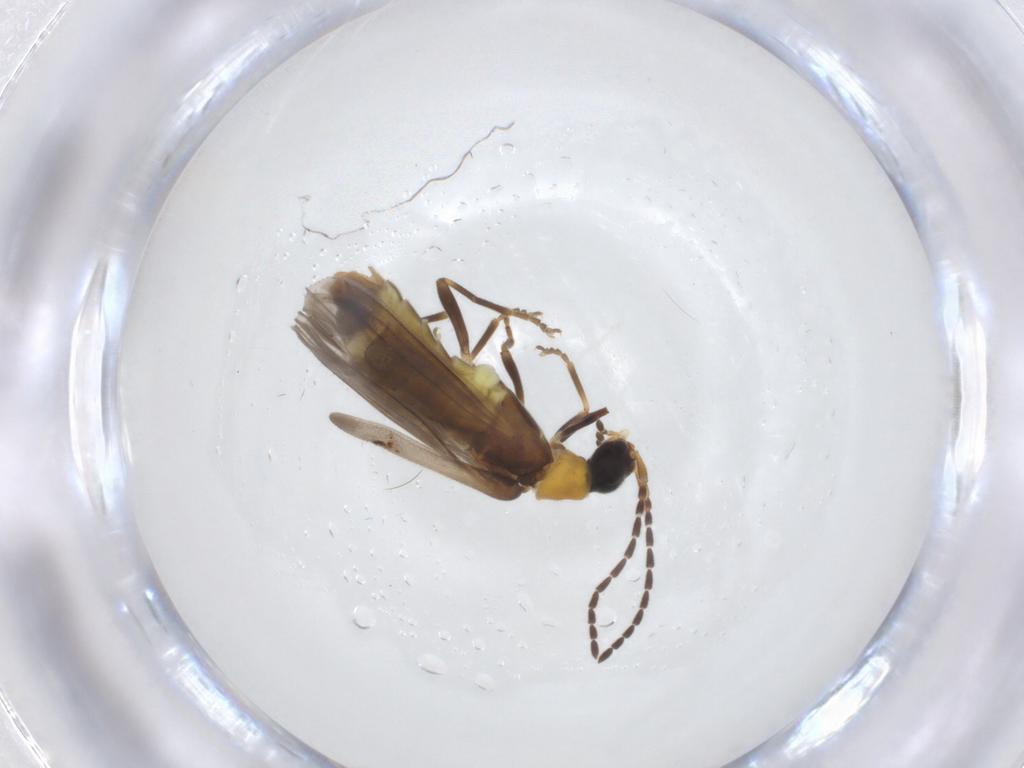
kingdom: Animalia
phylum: Arthropoda
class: Insecta
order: Coleoptera
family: Cantharidae
